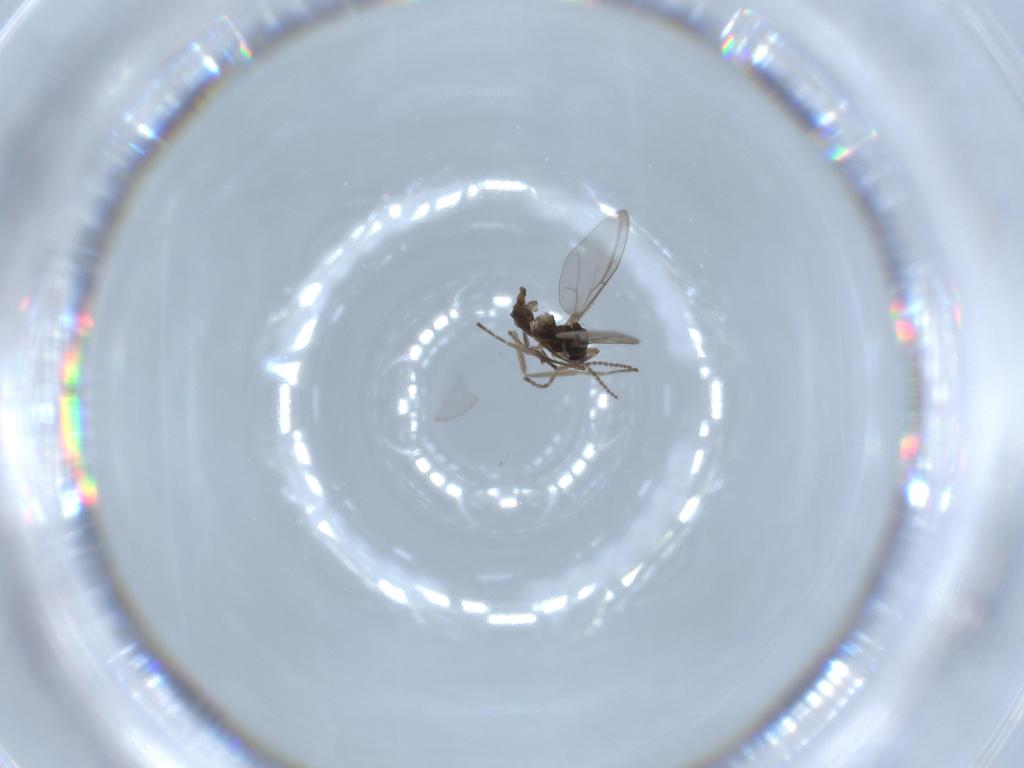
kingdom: Animalia
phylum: Arthropoda
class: Insecta
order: Diptera
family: Cecidomyiidae
